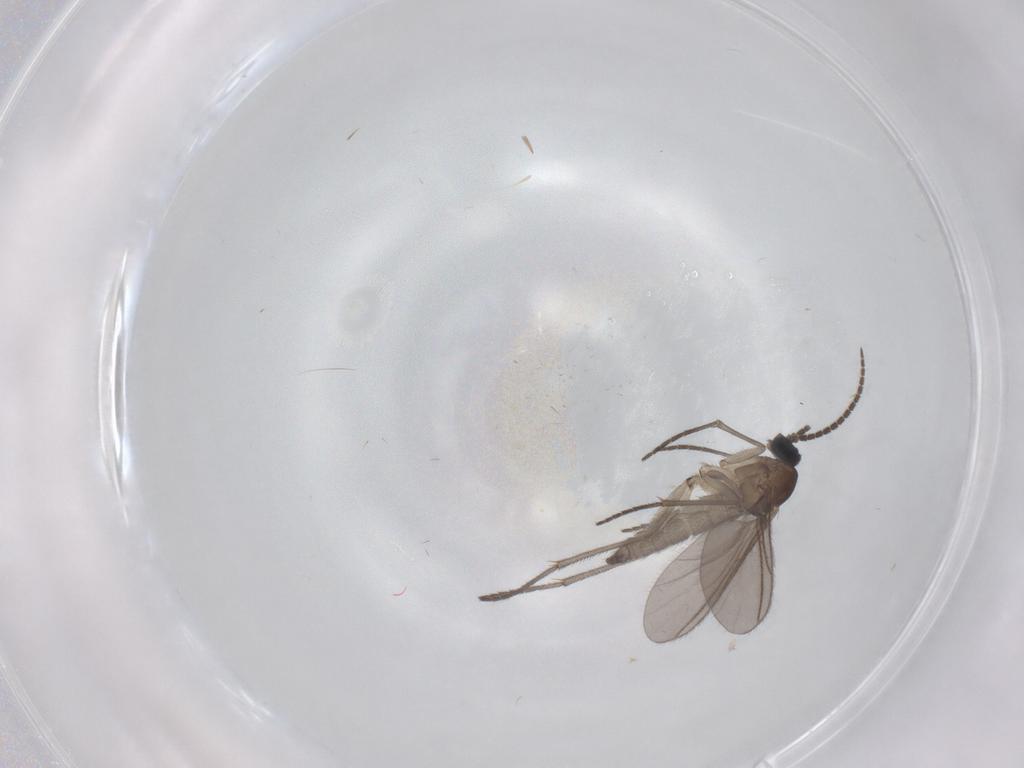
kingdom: Animalia
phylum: Arthropoda
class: Insecta
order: Diptera
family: Sciaridae
